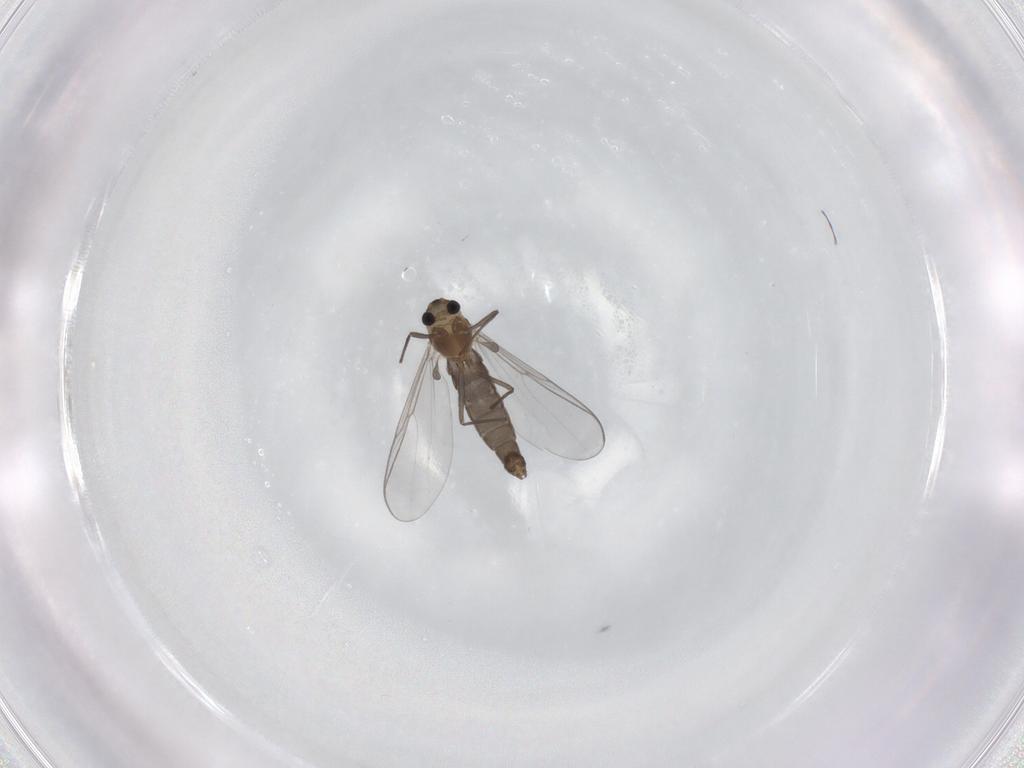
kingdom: Animalia
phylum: Arthropoda
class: Insecta
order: Diptera
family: Chironomidae
